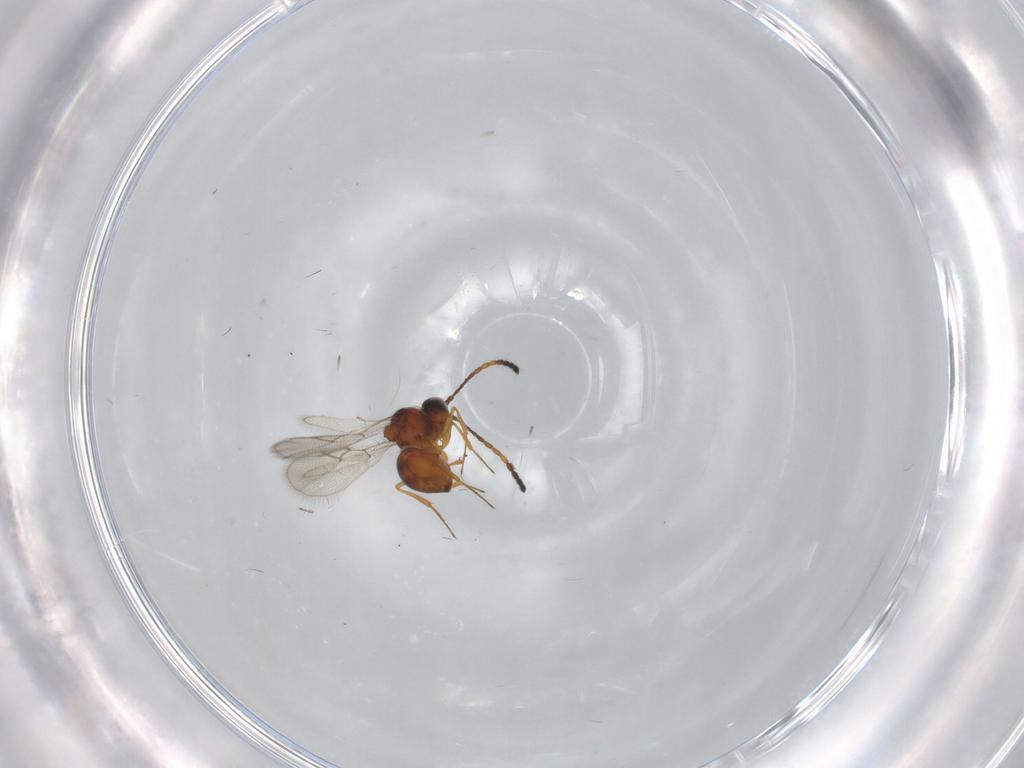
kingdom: Animalia
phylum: Arthropoda
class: Insecta
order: Hymenoptera
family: Figitidae
